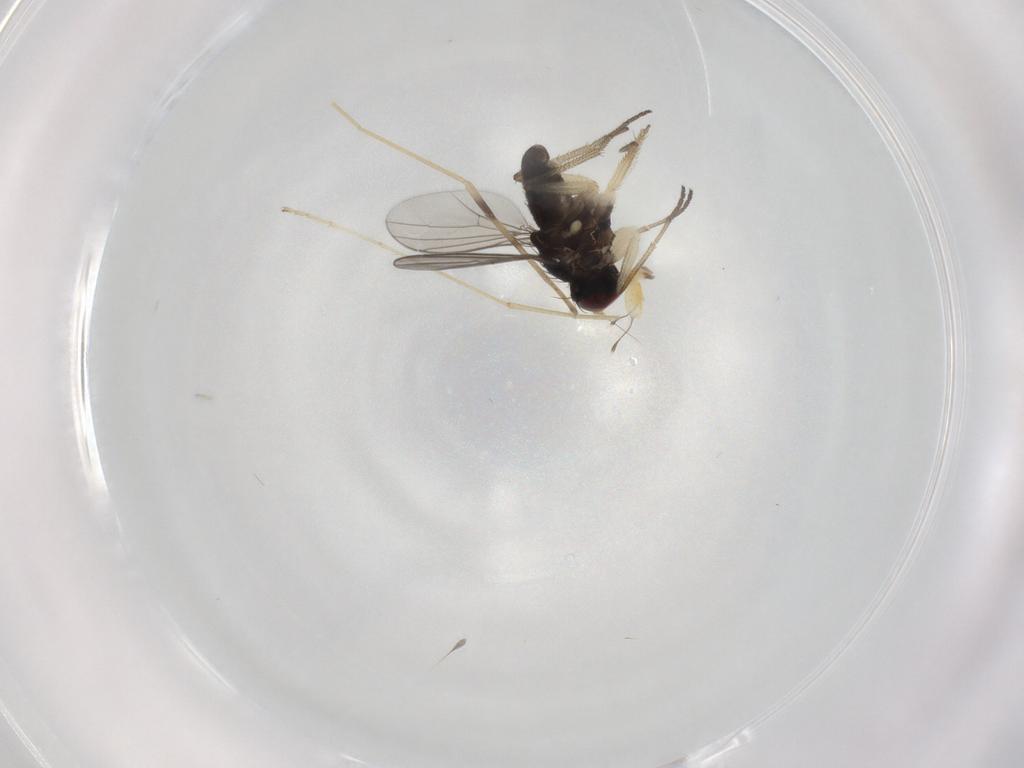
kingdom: Animalia
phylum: Arthropoda
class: Insecta
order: Diptera
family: Dolichopodidae
